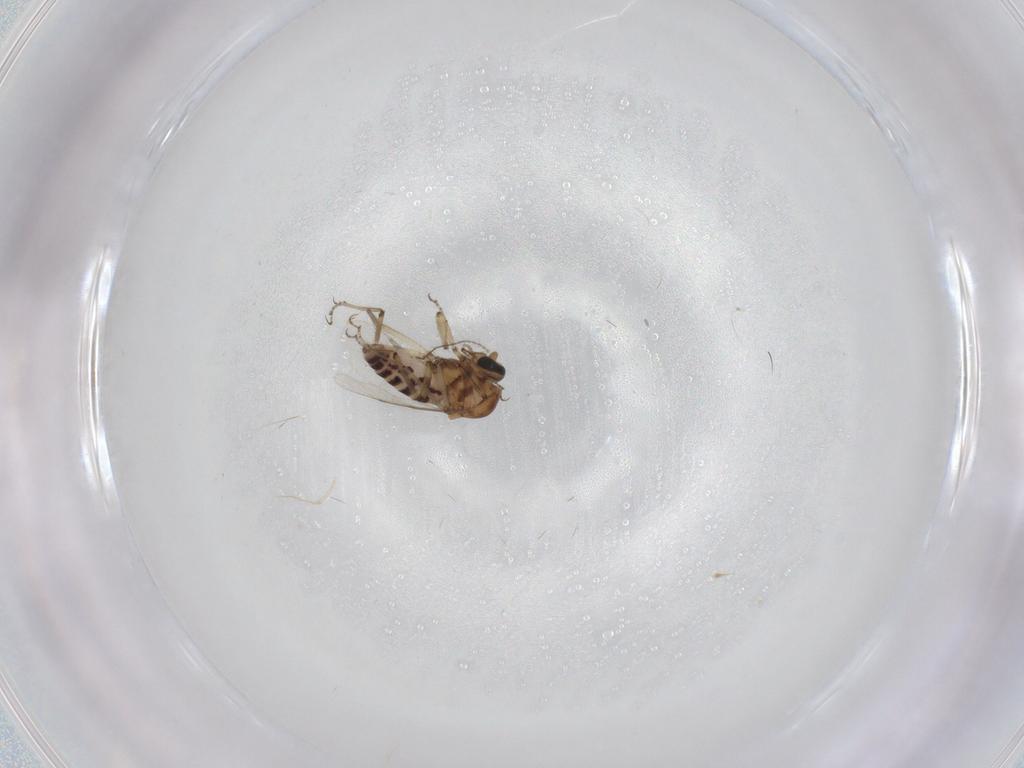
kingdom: Animalia
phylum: Arthropoda
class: Insecta
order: Diptera
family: Ceratopogonidae
